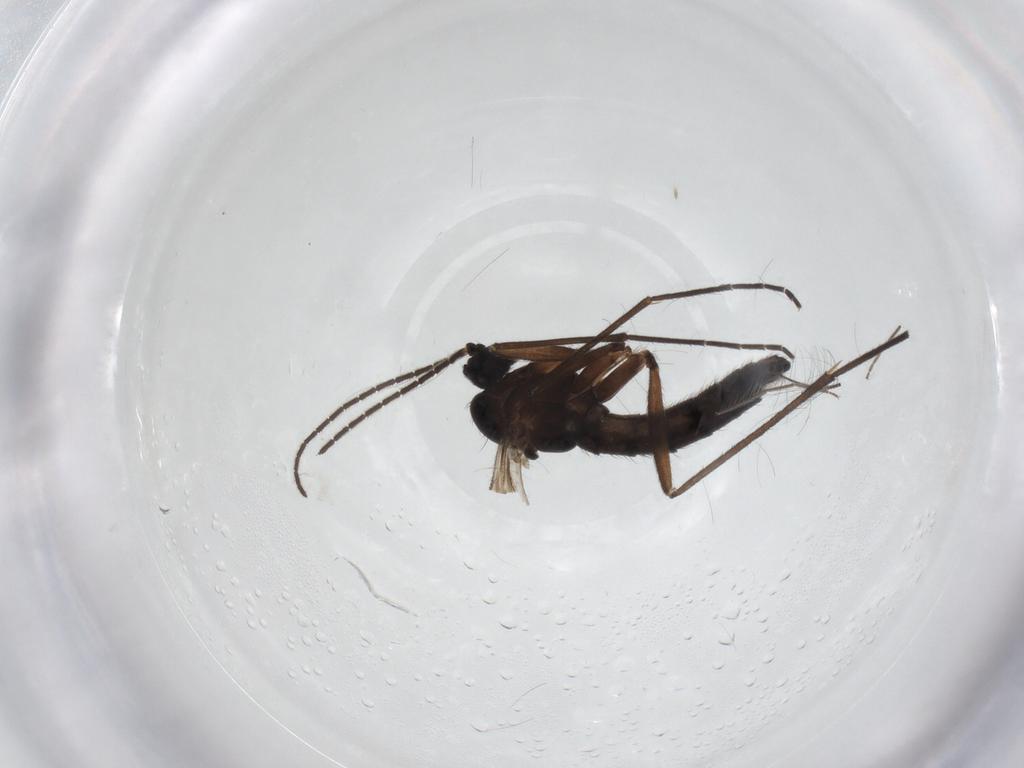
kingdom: Animalia
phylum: Arthropoda
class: Insecta
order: Diptera
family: Sciaridae
